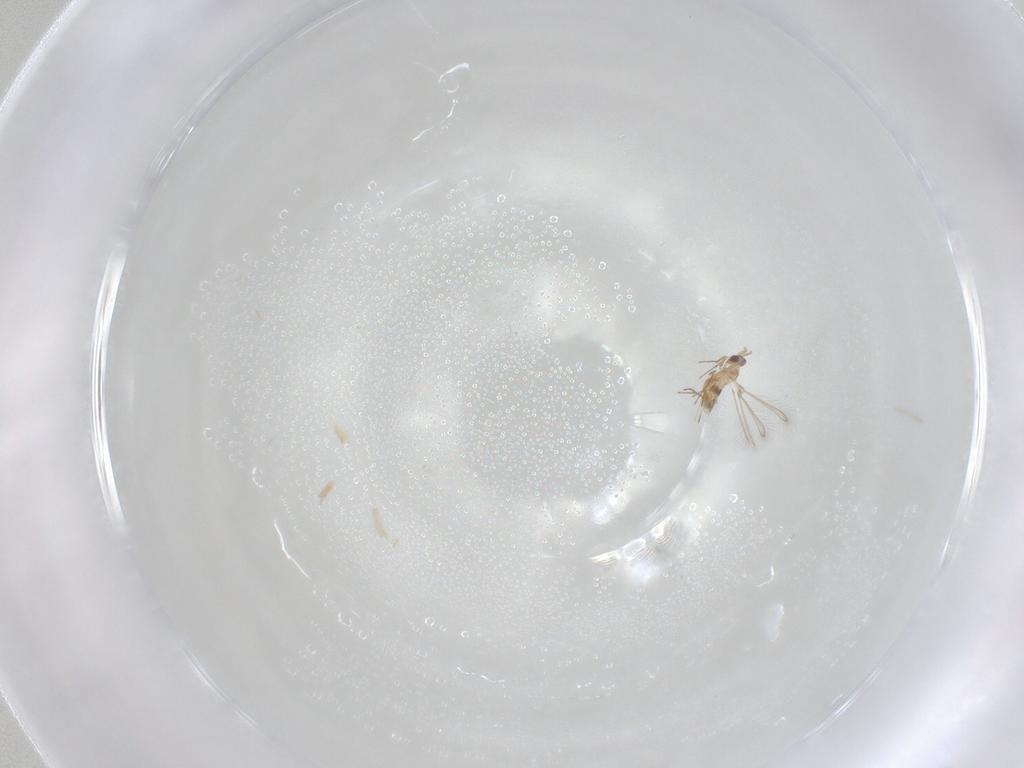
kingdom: Animalia
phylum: Arthropoda
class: Insecta
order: Hymenoptera
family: Mymaridae
